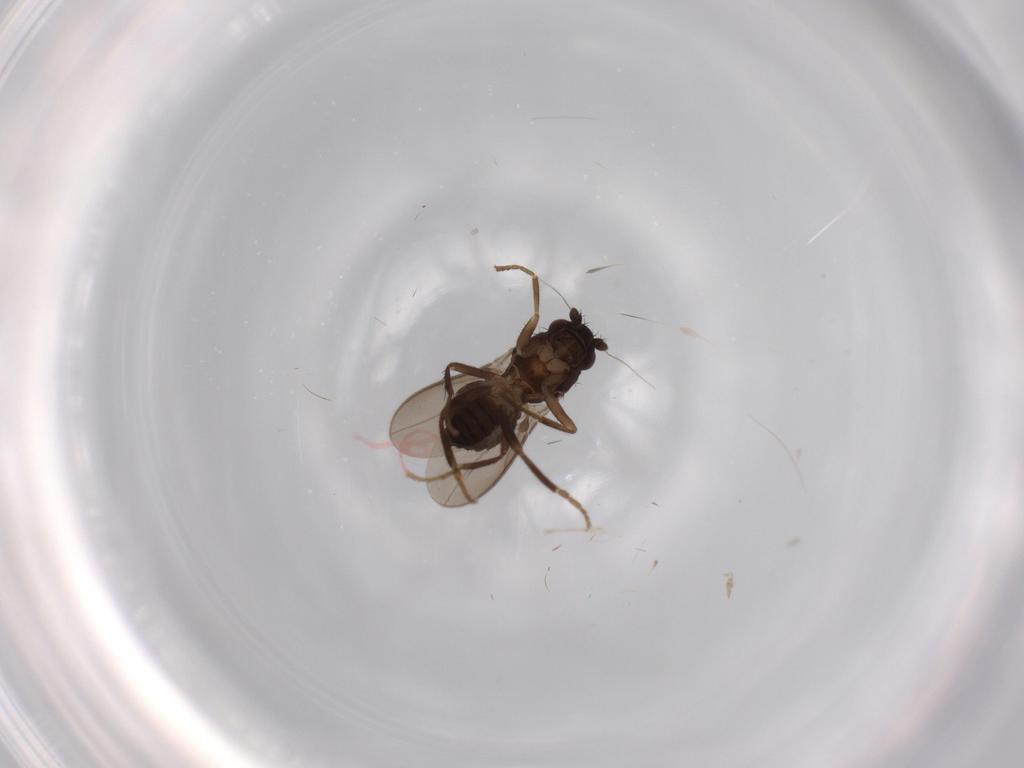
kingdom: Animalia
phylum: Arthropoda
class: Insecta
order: Diptera
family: Sphaeroceridae
